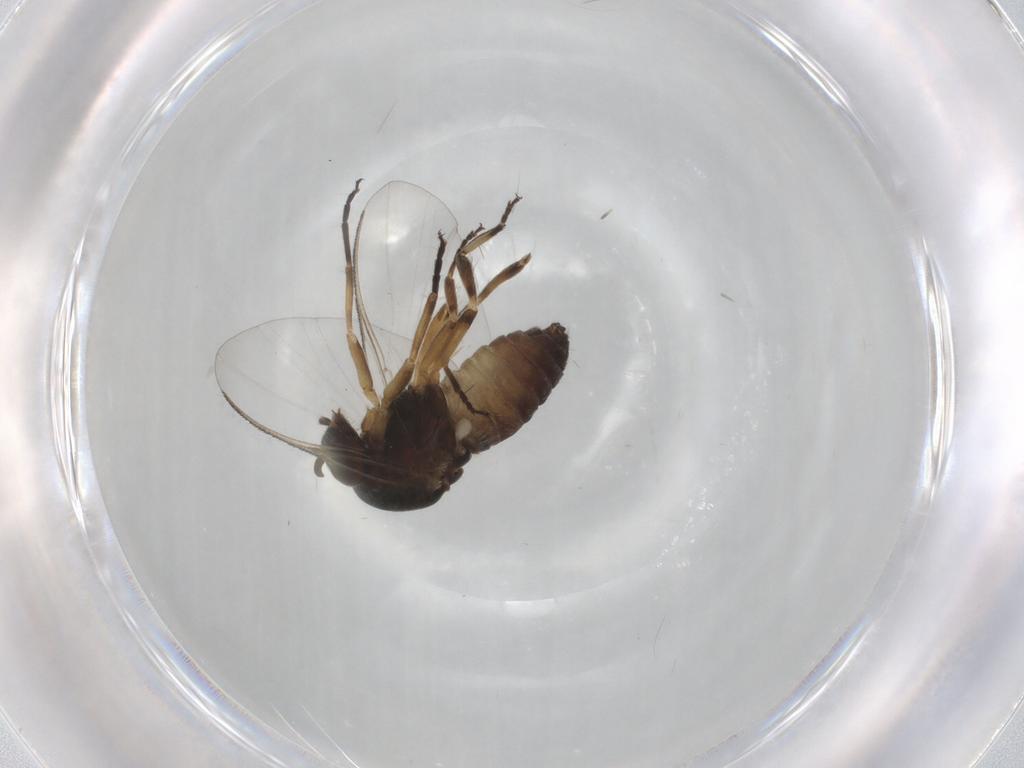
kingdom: Animalia
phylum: Arthropoda
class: Insecta
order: Diptera
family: Chironomidae
